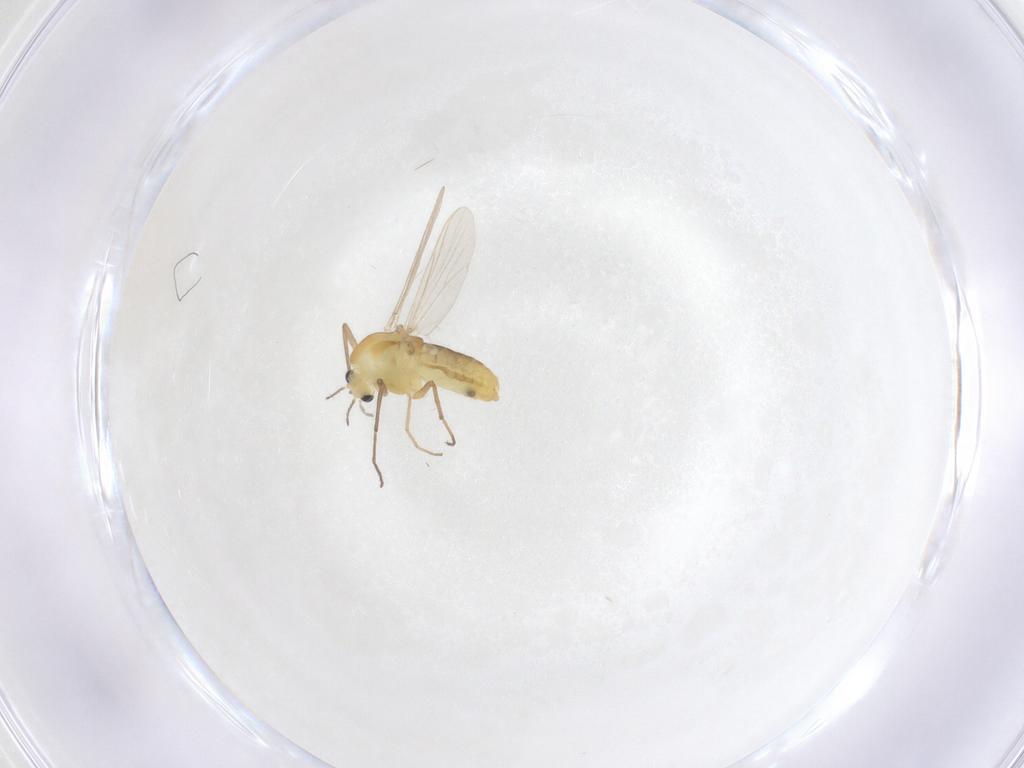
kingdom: Animalia
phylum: Arthropoda
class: Insecta
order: Diptera
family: Chironomidae
